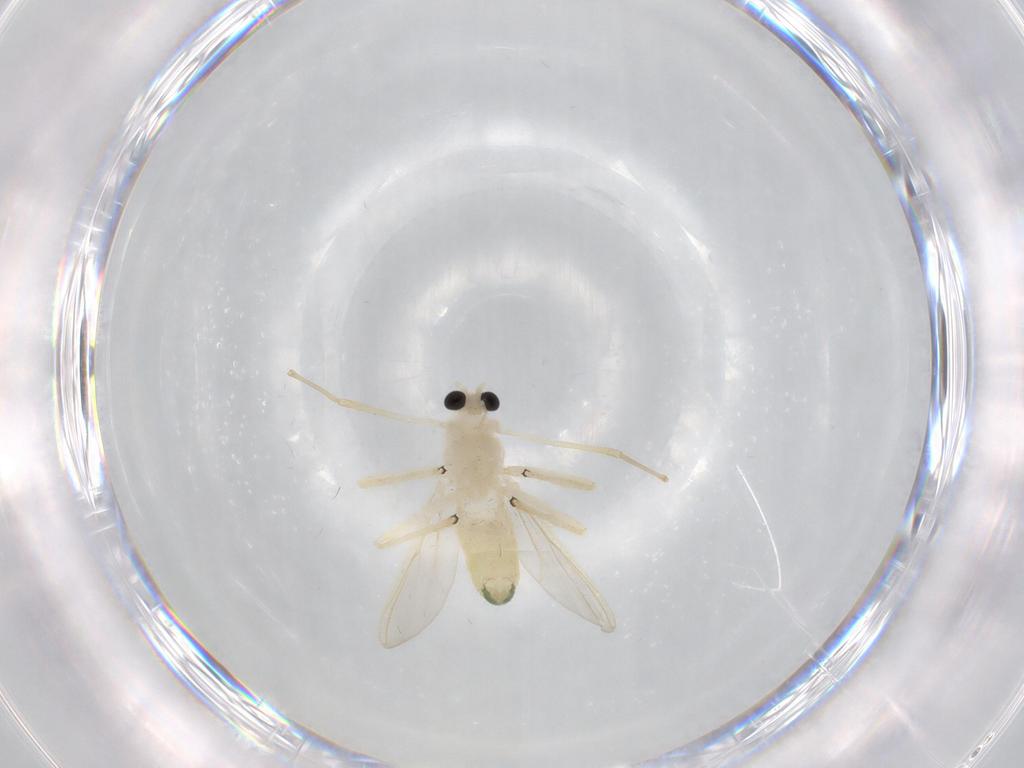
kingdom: Animalia
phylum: Arthropoda
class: Insecta
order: Diptera
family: Chironomidae
